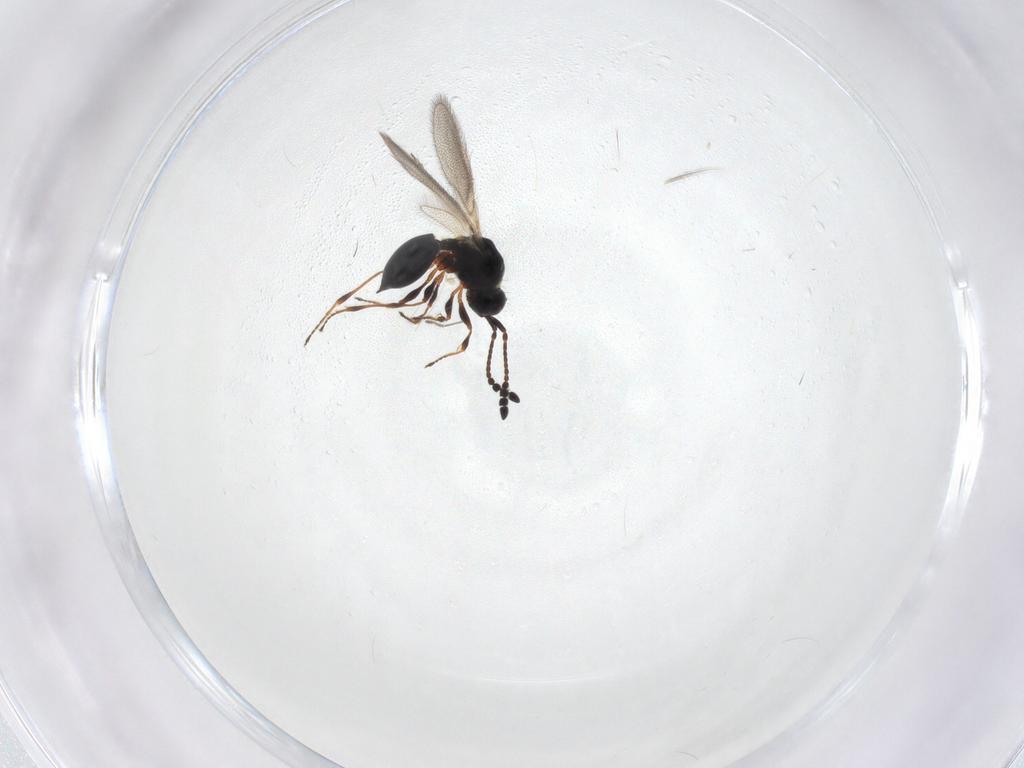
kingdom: Animalia
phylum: Arthropoda
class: Insecta
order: Hymenoptera
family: Diapriidae
